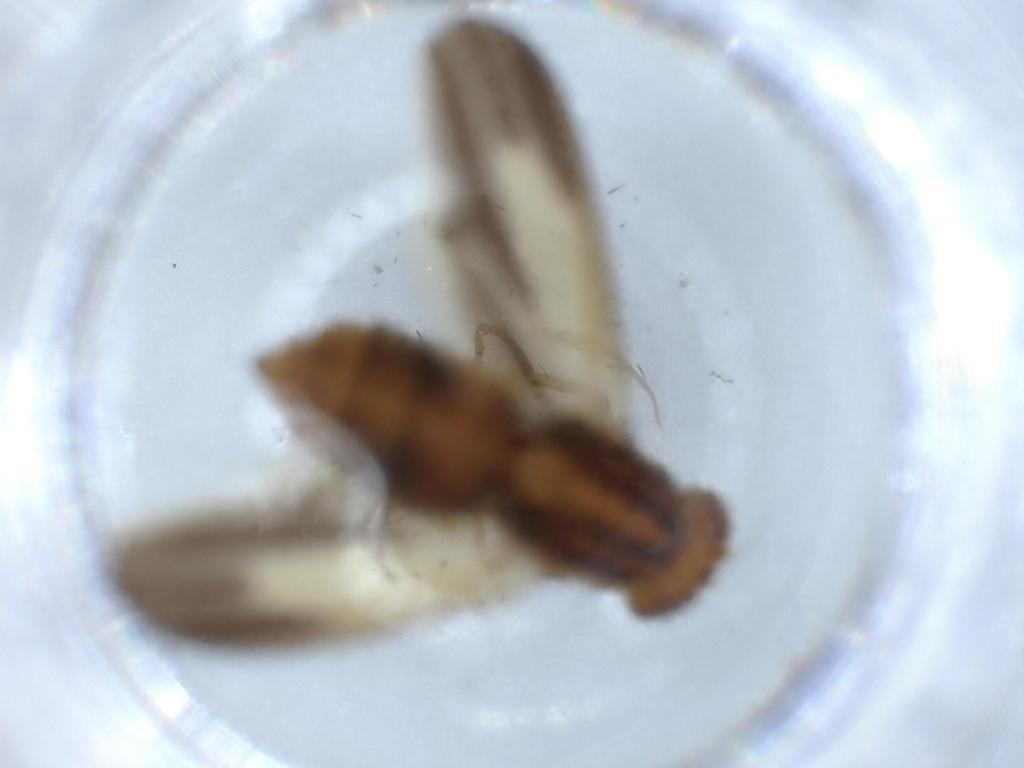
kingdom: Animalia
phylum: Arthropoda
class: Insecta
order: Diptera
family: Cecidomyiidae
